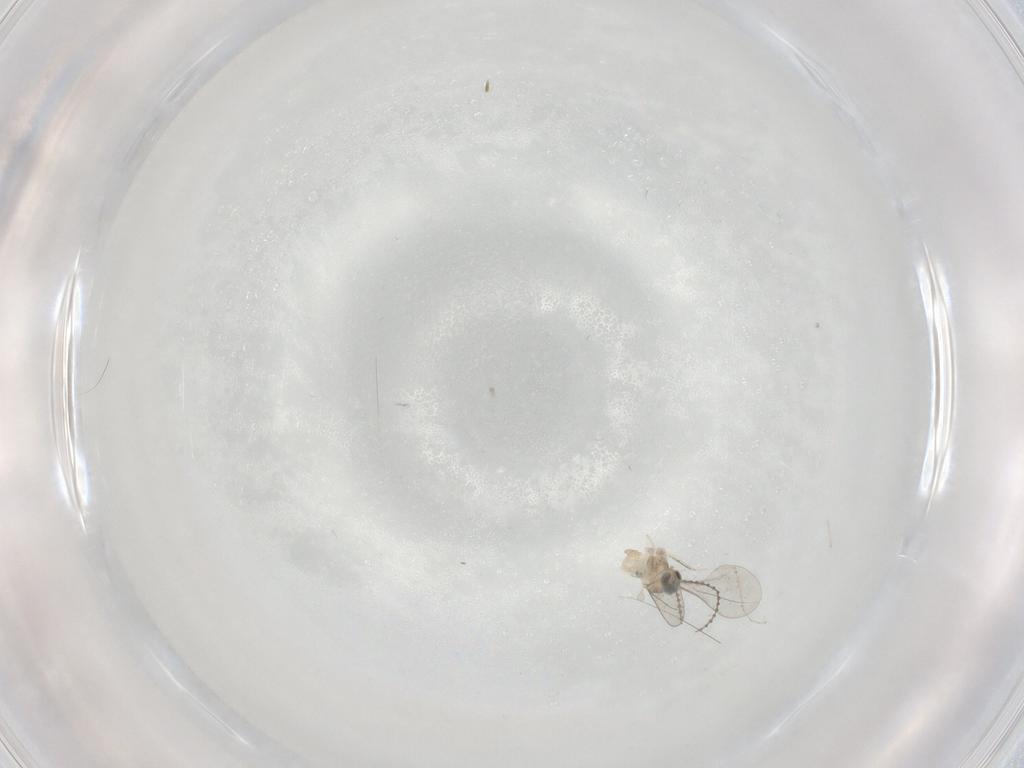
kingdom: Animalia
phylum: Arthropoda
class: Insecta
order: Diptera
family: Cecidomyiidae
